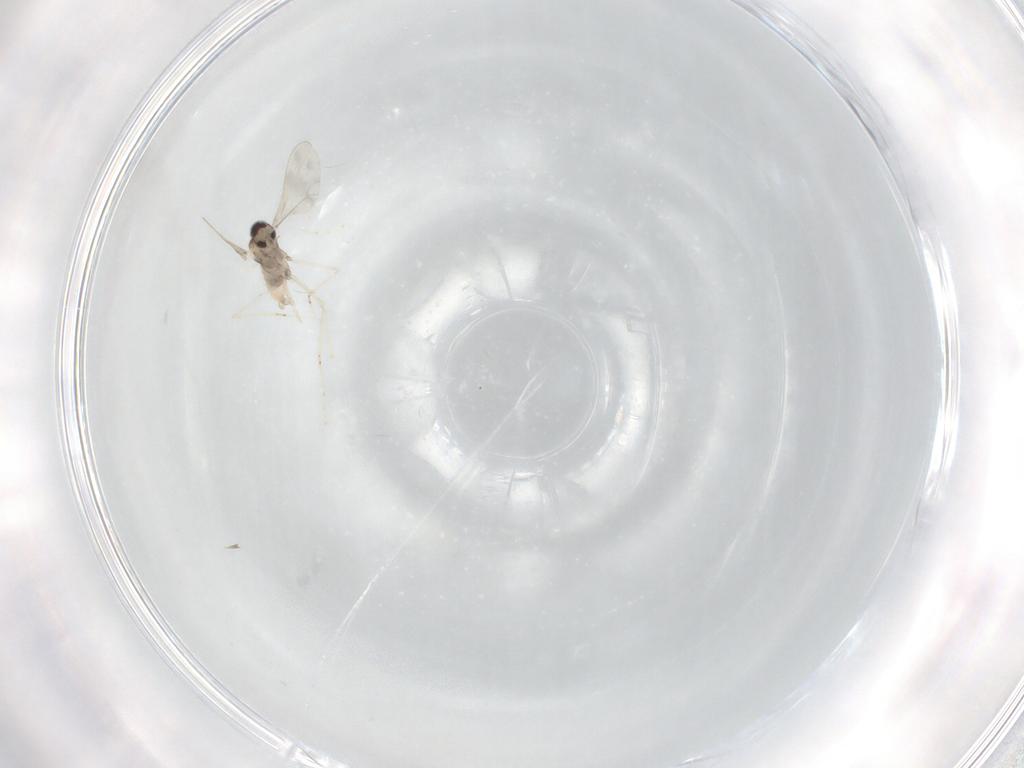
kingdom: Animalia
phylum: Arthropoda
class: Insecta
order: Diptera
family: Cecidomyiidae
